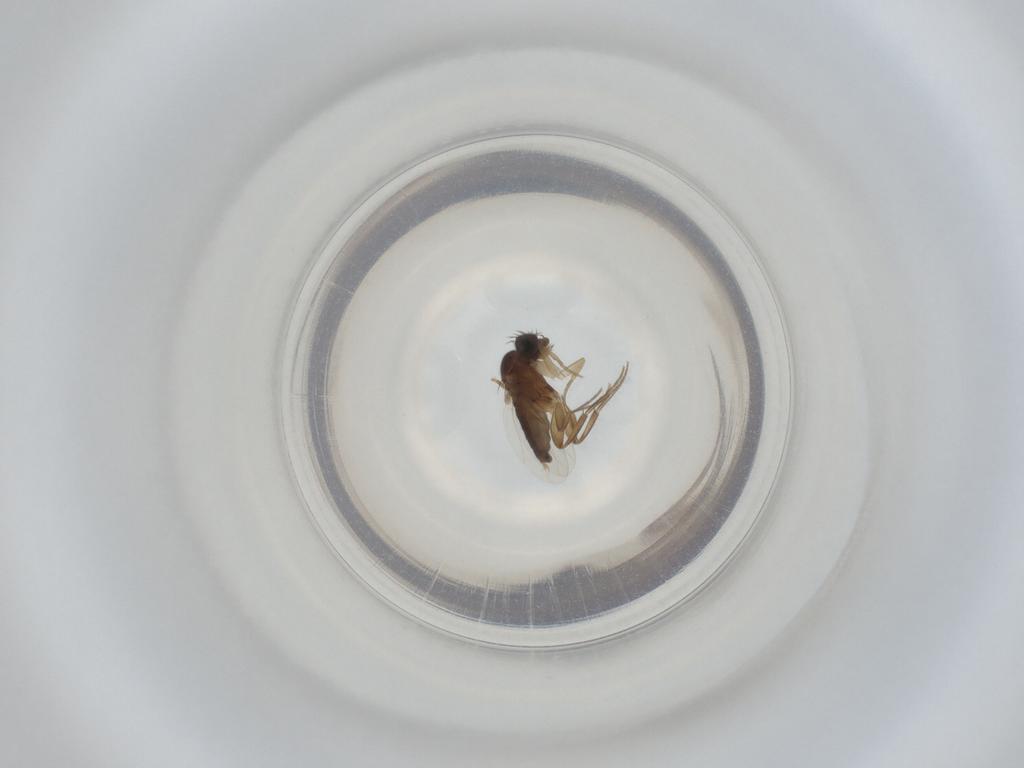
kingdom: Animalia
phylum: Arthropoda
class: Insecta
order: Diptera
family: Phoridae
